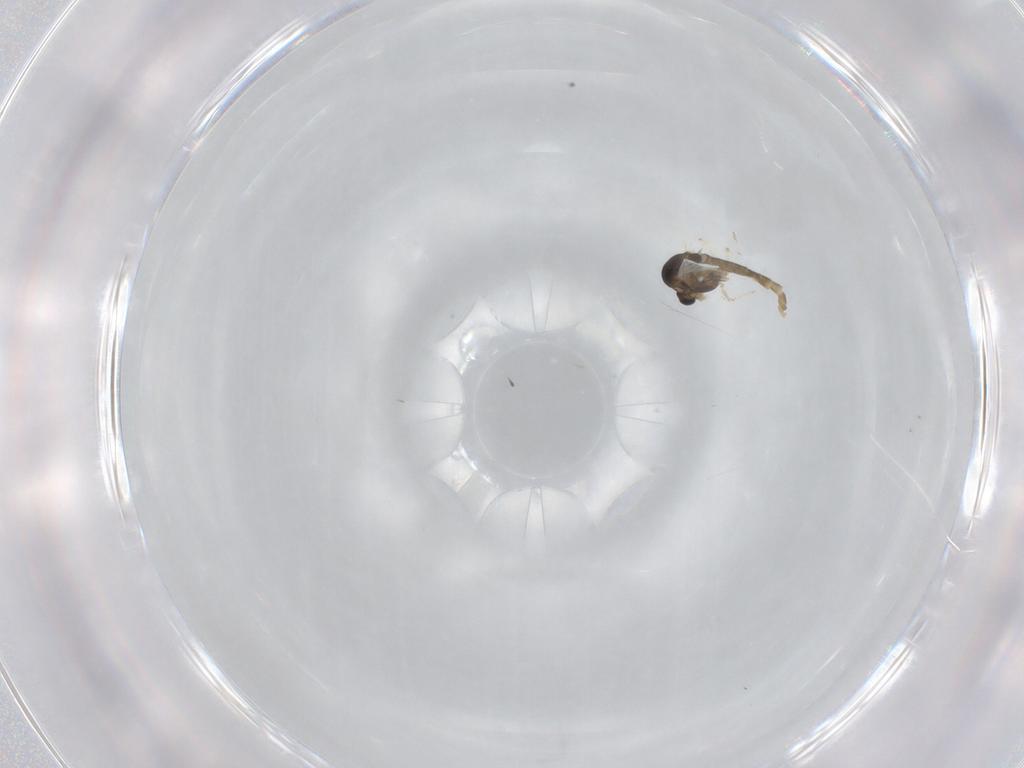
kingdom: Animalia
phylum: Arthropoda
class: Insecta
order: Diptera
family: Chironomidae
